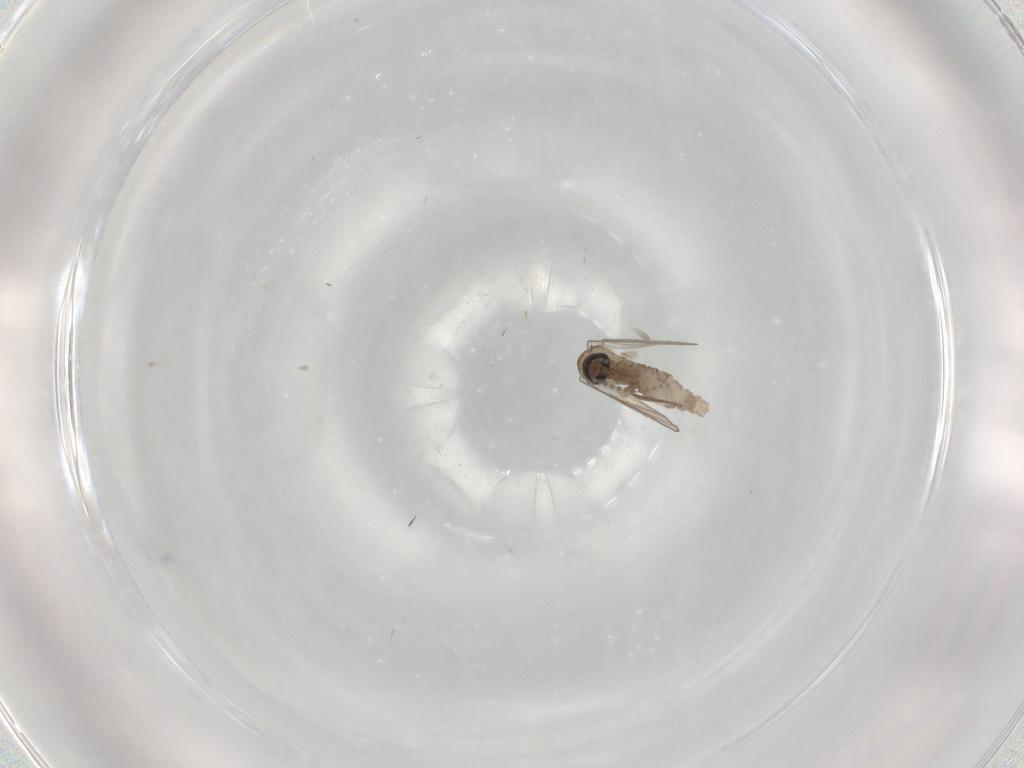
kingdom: Animalia
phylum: Arthropoda
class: Insecta
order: Diptera
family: Psychodidae
